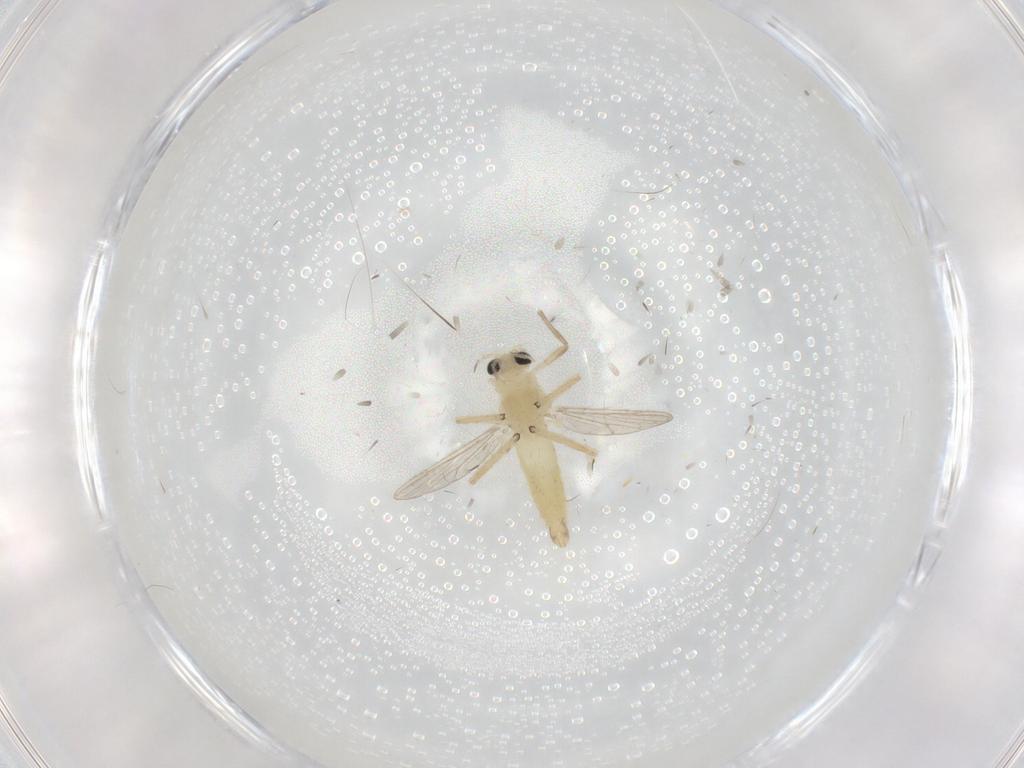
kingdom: Animalia
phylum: Arthropoda
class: Insecta
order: Diptera
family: Chironomidae
